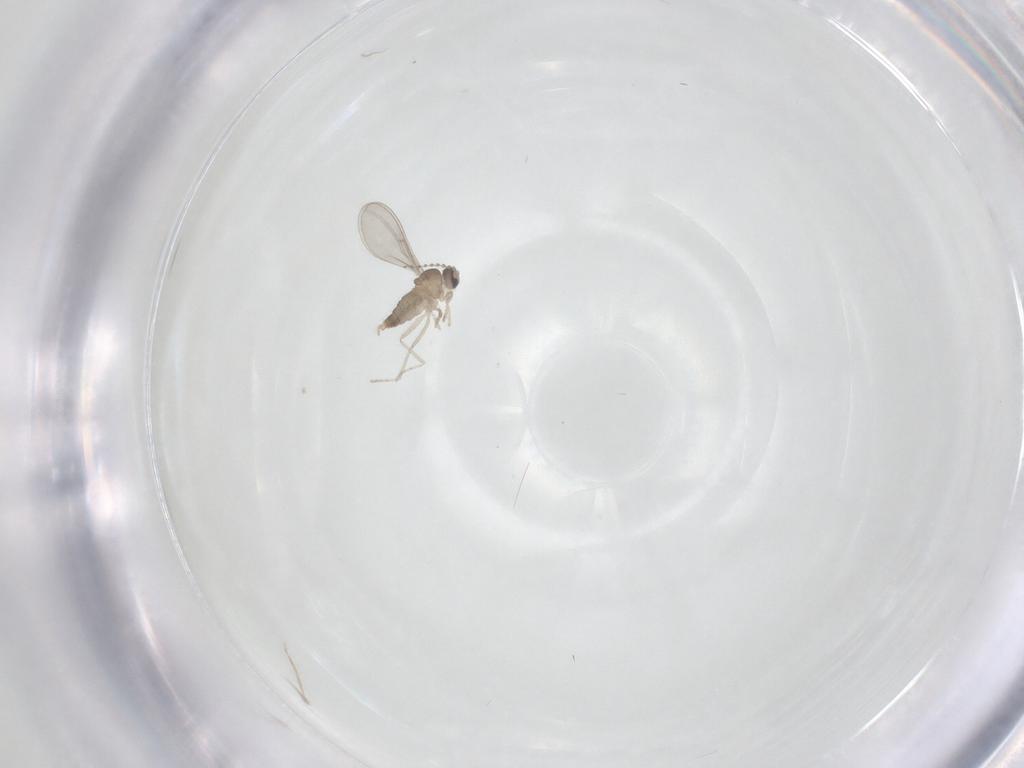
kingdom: Animalia
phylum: Arthropoda
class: Insecta
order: Diptera
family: Cecidomyiidae
